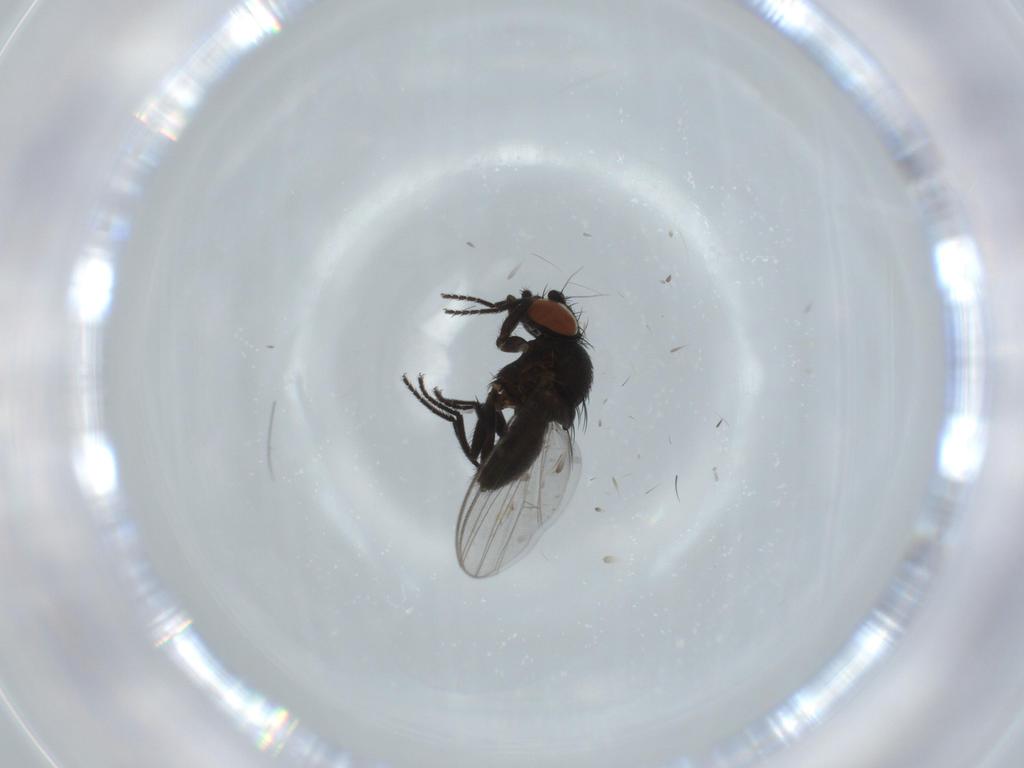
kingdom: Animalia
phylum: Arthropoda
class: Insecta
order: Diptera
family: Milichiidae
